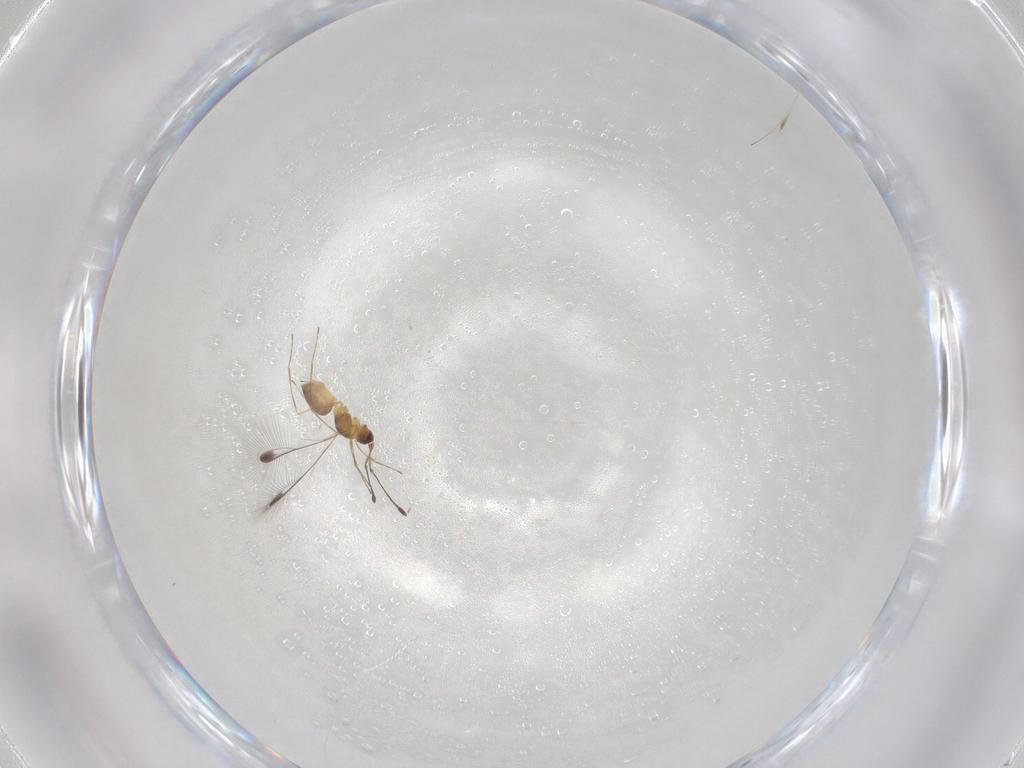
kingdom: Animalia
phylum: Arthropoda
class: Insecta
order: Hymenoptera
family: Mymaridae
